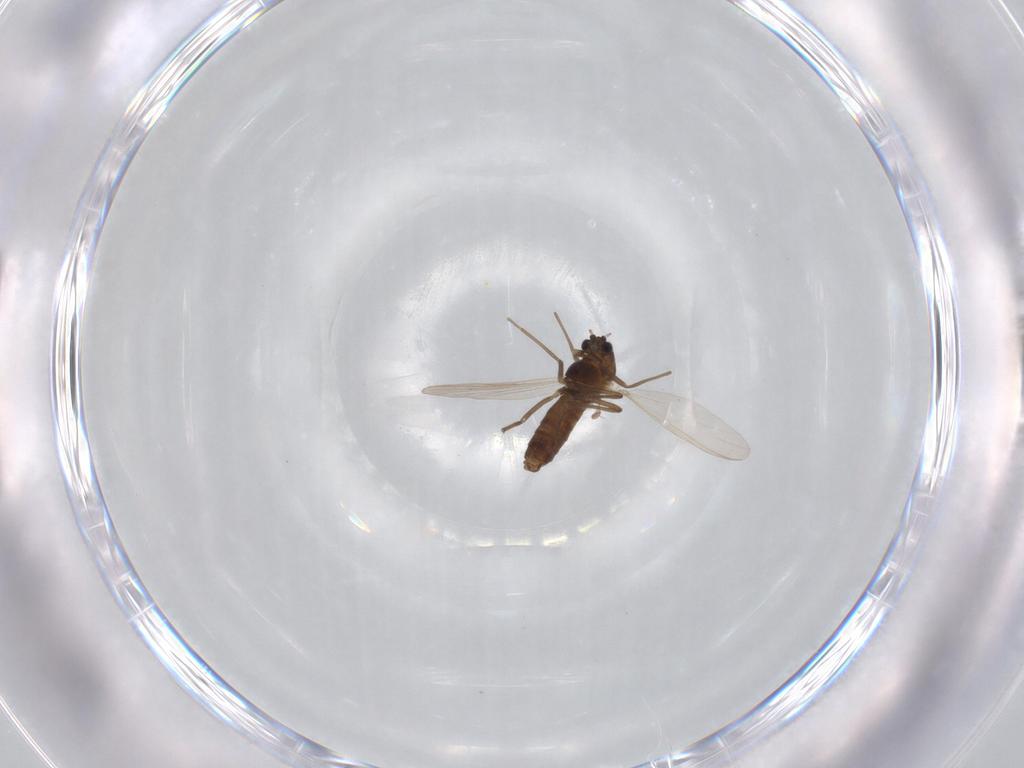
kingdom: Animalia
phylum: Arthropoda
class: Insecta
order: Diptera
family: Chironomidae
